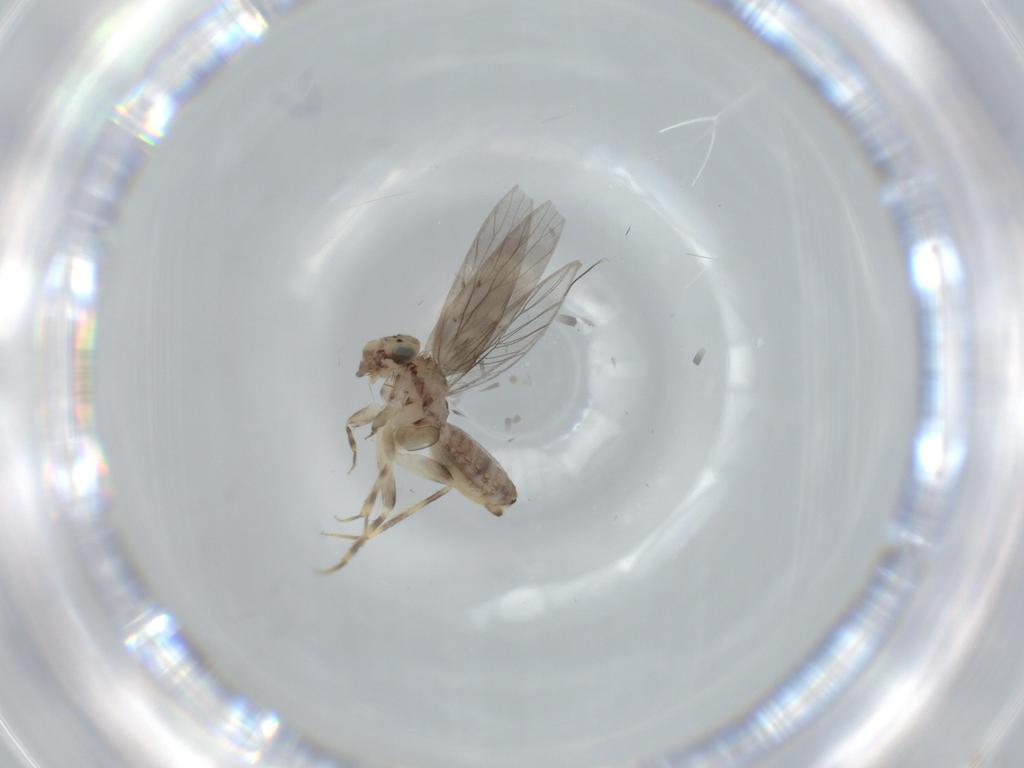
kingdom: Animalia
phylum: Arthropoda
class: Insecta
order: Psocodea
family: Lepidopsocidae
